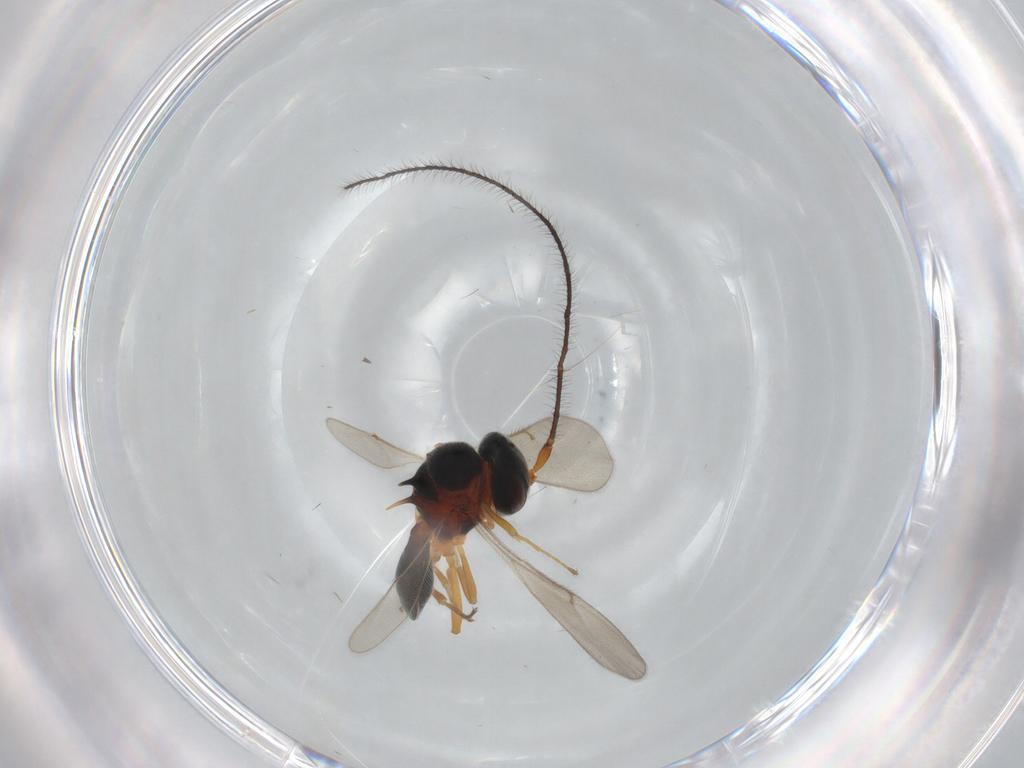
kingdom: Animalia
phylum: Arthropoda
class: Insecta
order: Hymenoptera
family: Scelionidae
